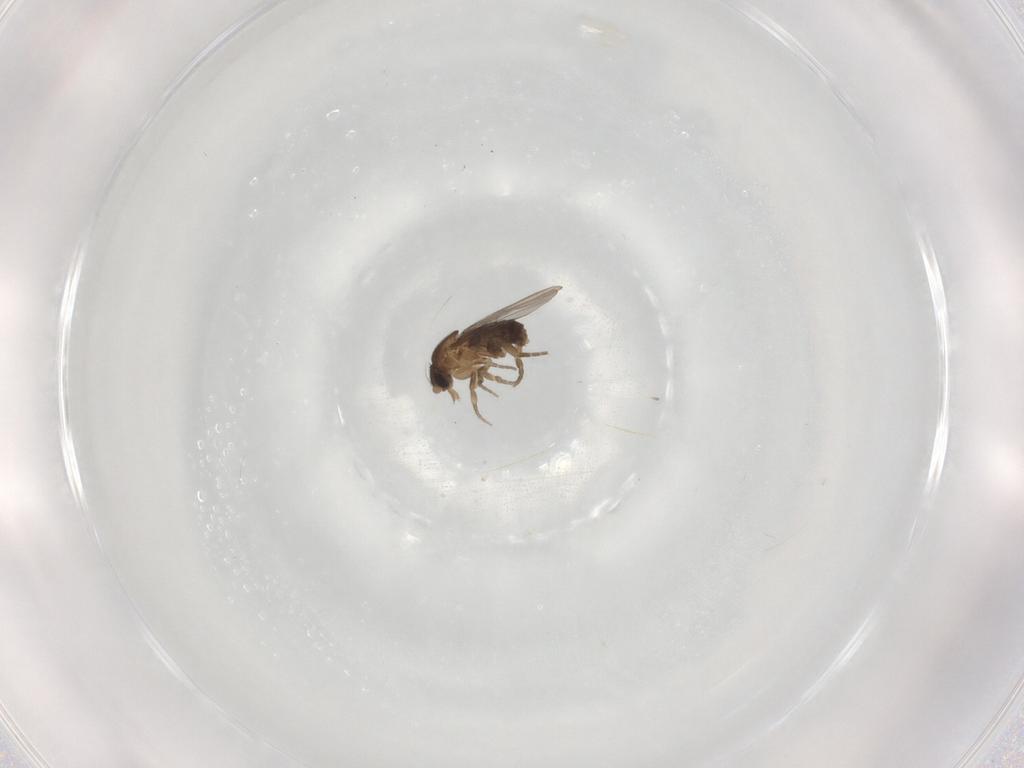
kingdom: Animalia
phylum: Arthropoda
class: Insecta
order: Diptera
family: Phoridae
